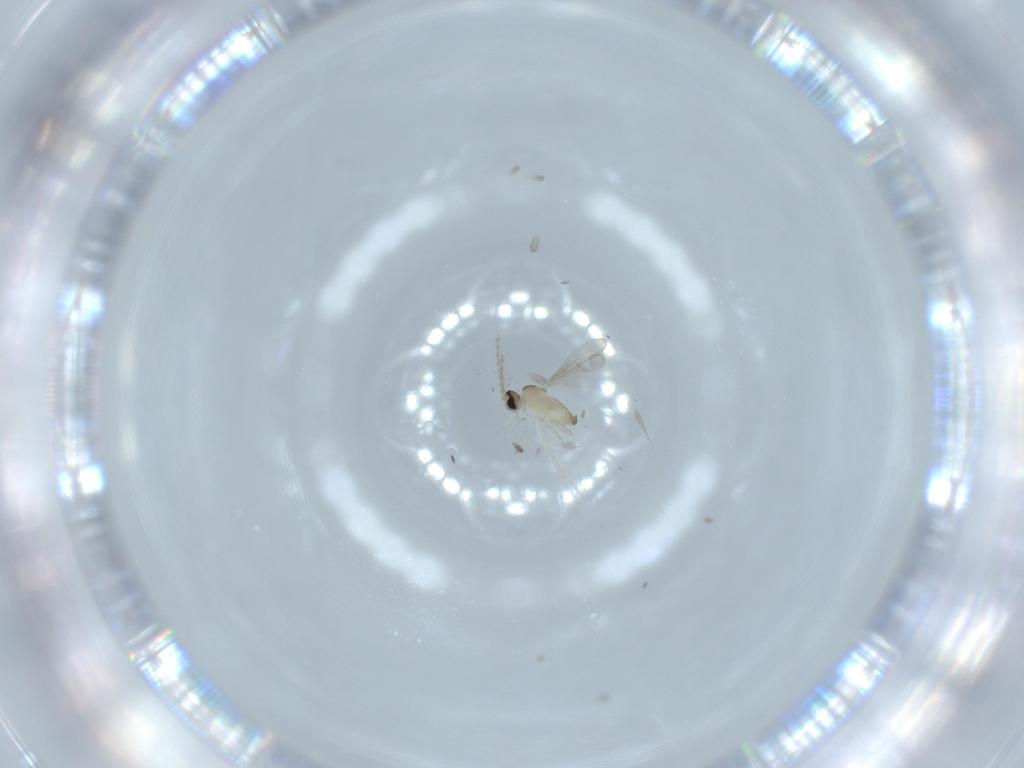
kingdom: Animalia
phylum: Arthropoda
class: Insecta
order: Diptera
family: Cecidomyiidae
